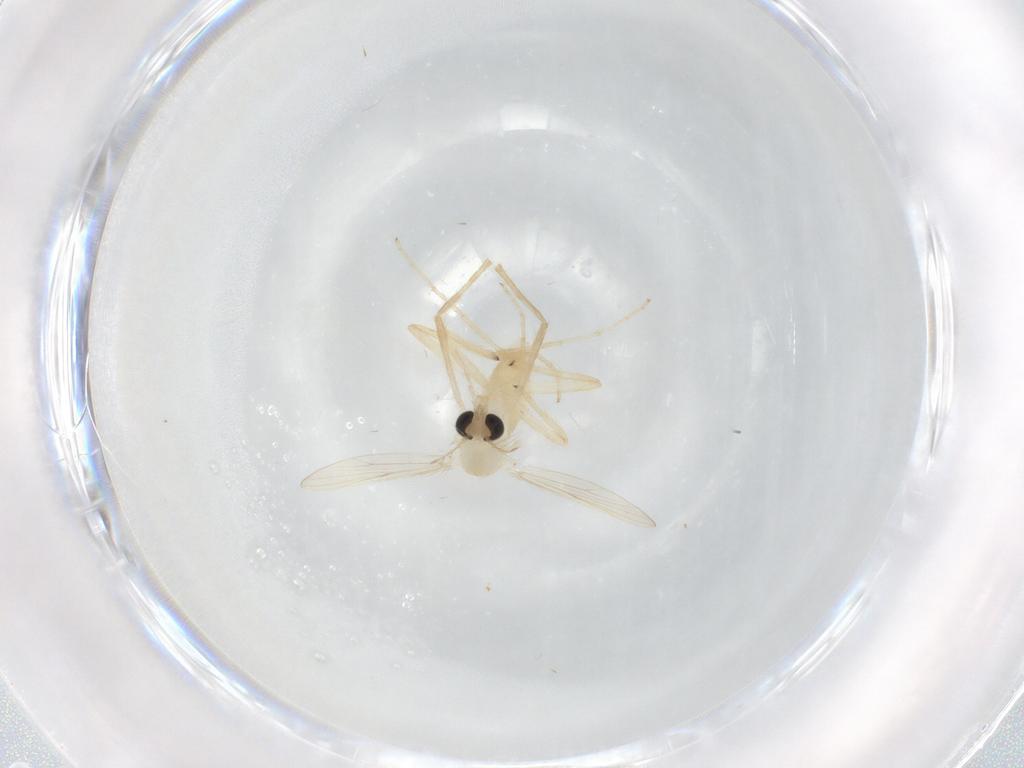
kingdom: Animalia
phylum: Arthropoda
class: Insecta
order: Diptera
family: Chironomidae
